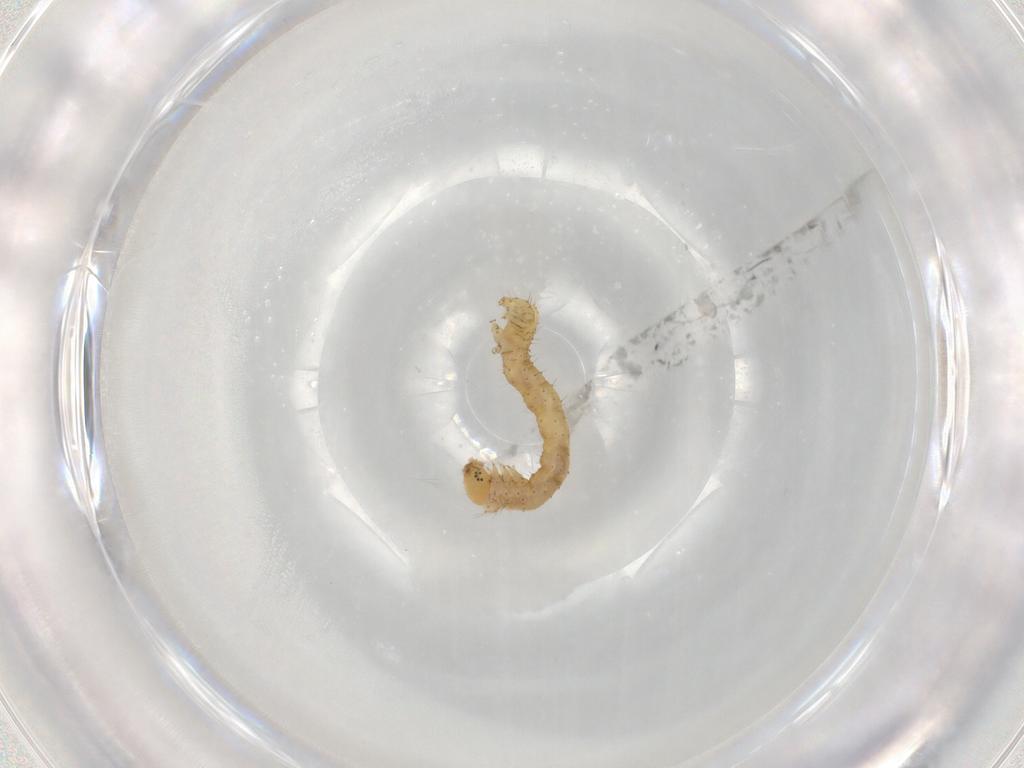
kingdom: Animalia
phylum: Arthropoda
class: Insecta
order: Lepidoptera
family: Geometridae
